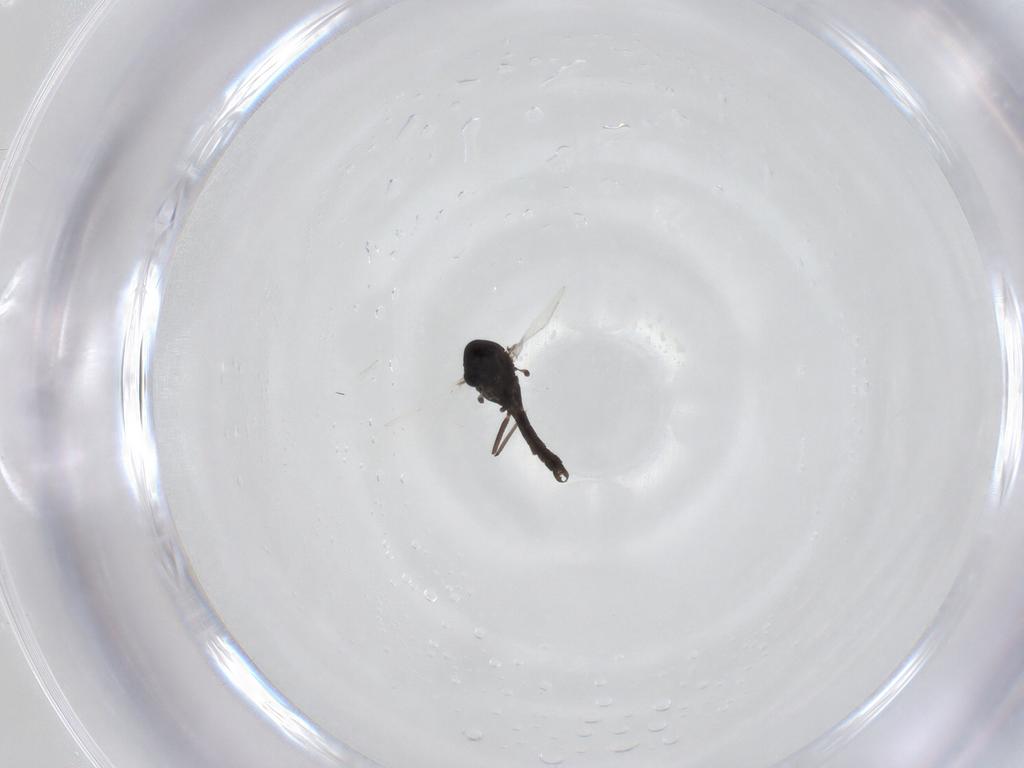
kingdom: Animalia
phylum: Arthropoda
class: Insecta
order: Diptera
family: Chironomidae
